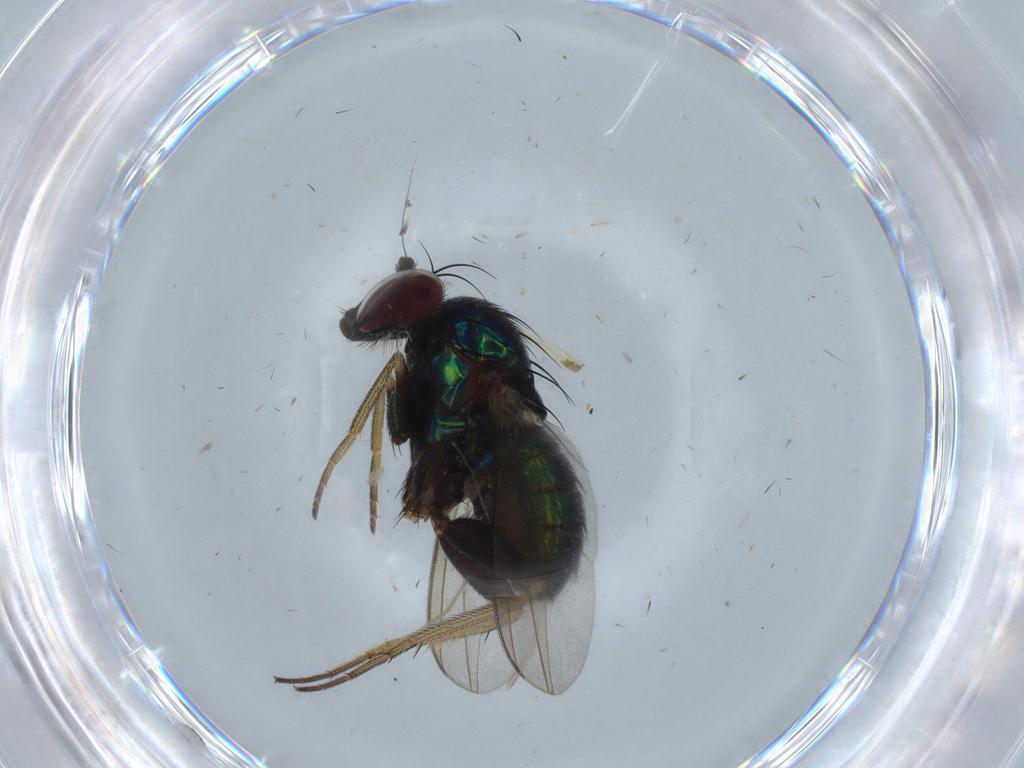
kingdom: Animalia
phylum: Arthropoda
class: Insecta
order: Diptera
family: Dolichopodidae
